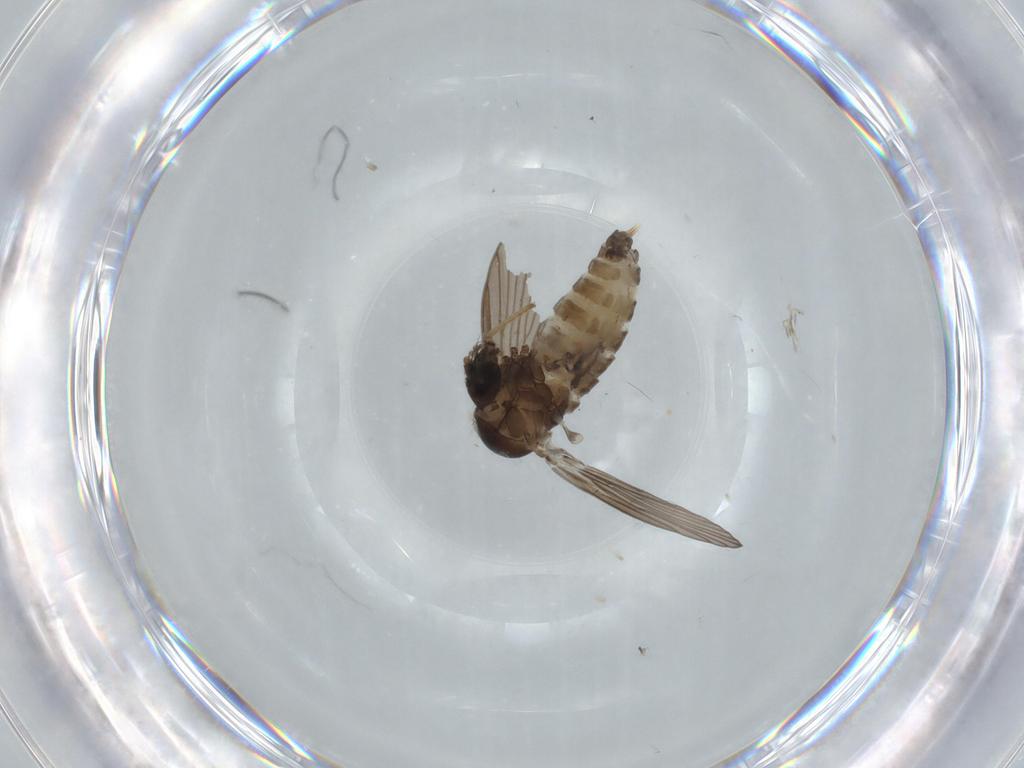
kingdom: Animalia
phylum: Arthropoda
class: Insecta
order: Diptera
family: Psychodidae
